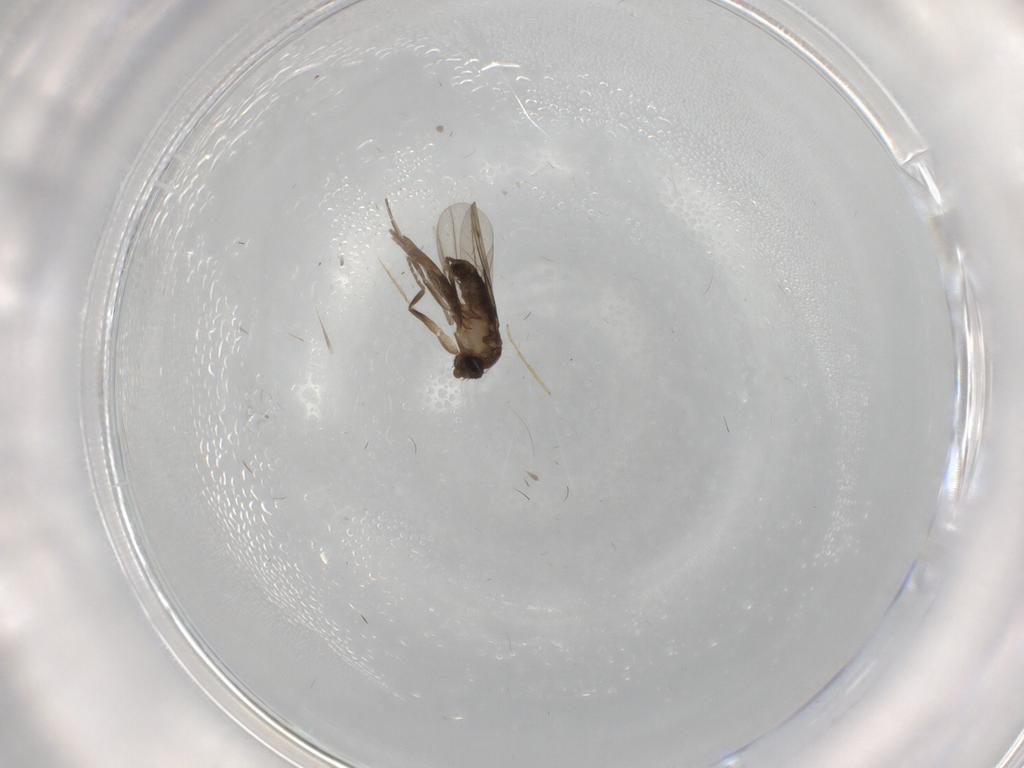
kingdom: Animalia
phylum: Arthropoda
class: Insecta
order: Diptera
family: Phoridae
